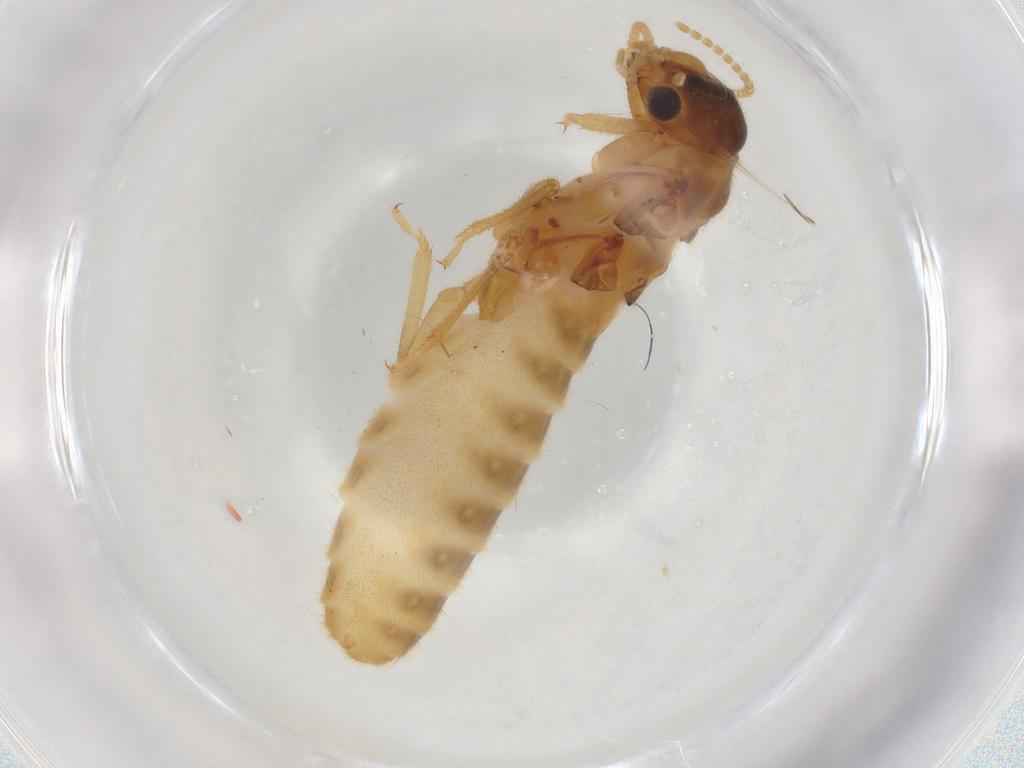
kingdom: Animalia
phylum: Arthropoda
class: Insecta
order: Blattodea
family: Termitidae
